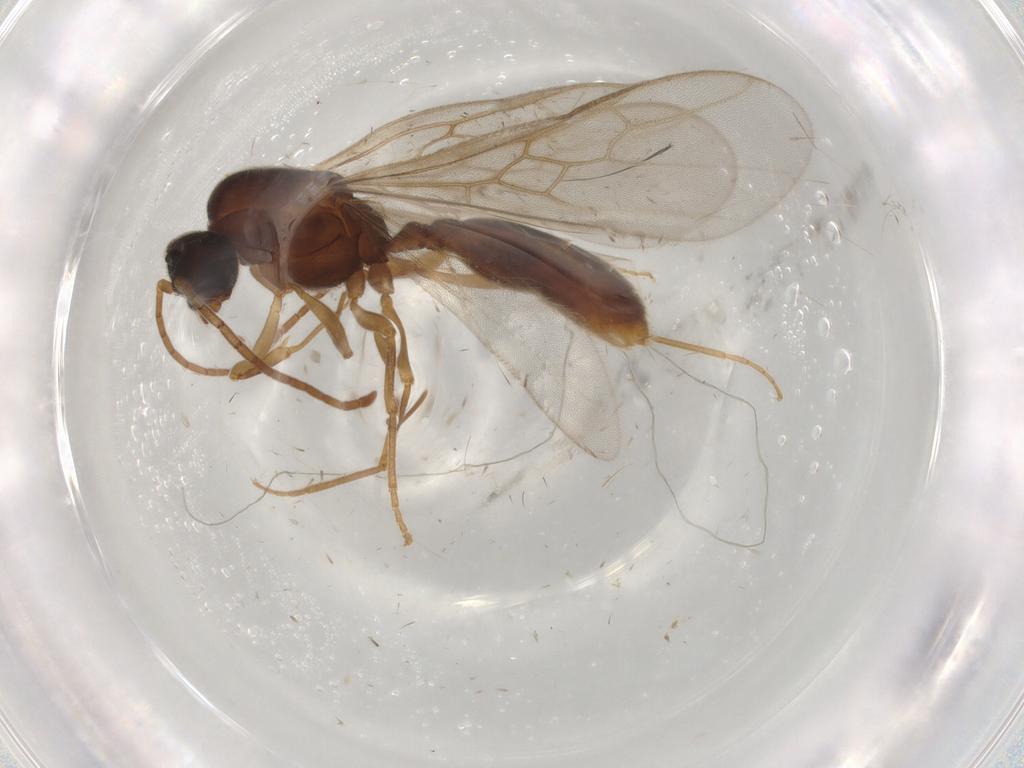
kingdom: Animalia
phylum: Arthropoda
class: Insecta
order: Hymenoptera
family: Formicidae
